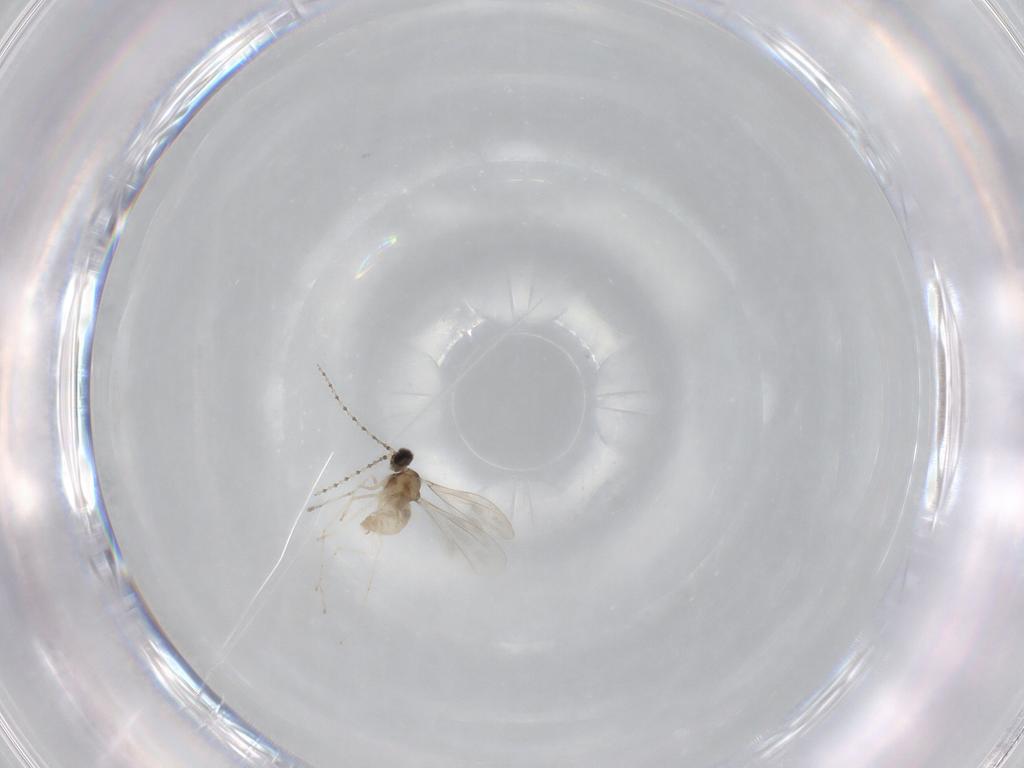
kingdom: Animalia
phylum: Arthropoda
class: Insecta
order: Diptera
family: Cecidomyiidae
